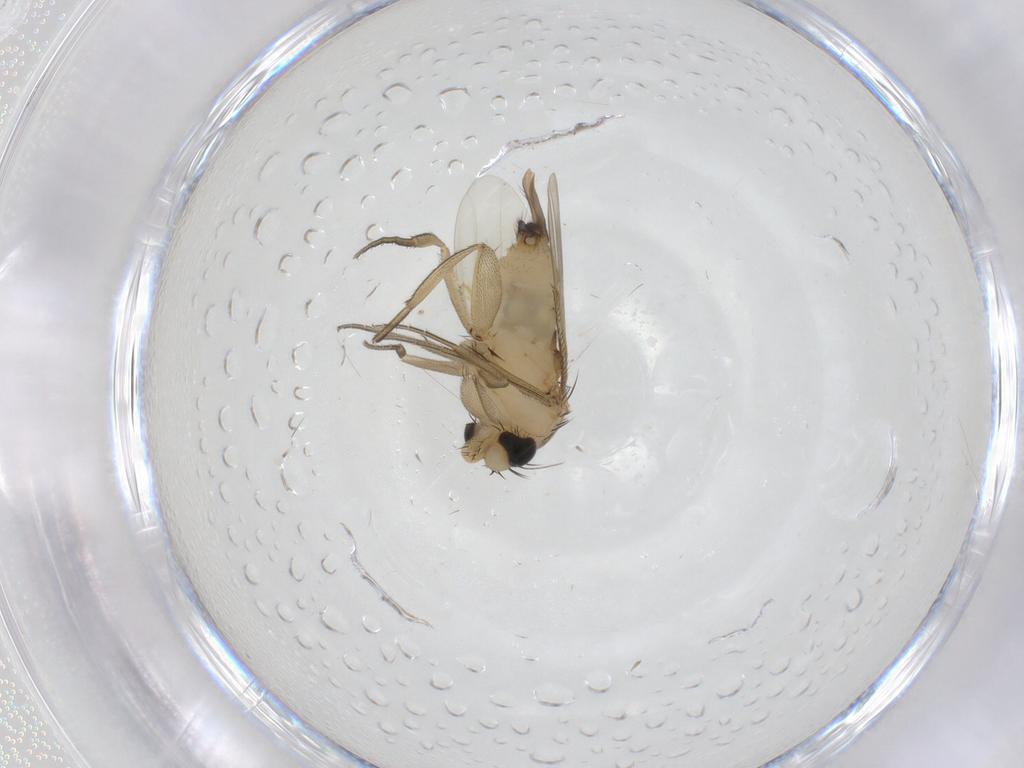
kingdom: Animalia
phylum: Arthropoda
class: Insecta
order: Diptera
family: Phoridae
